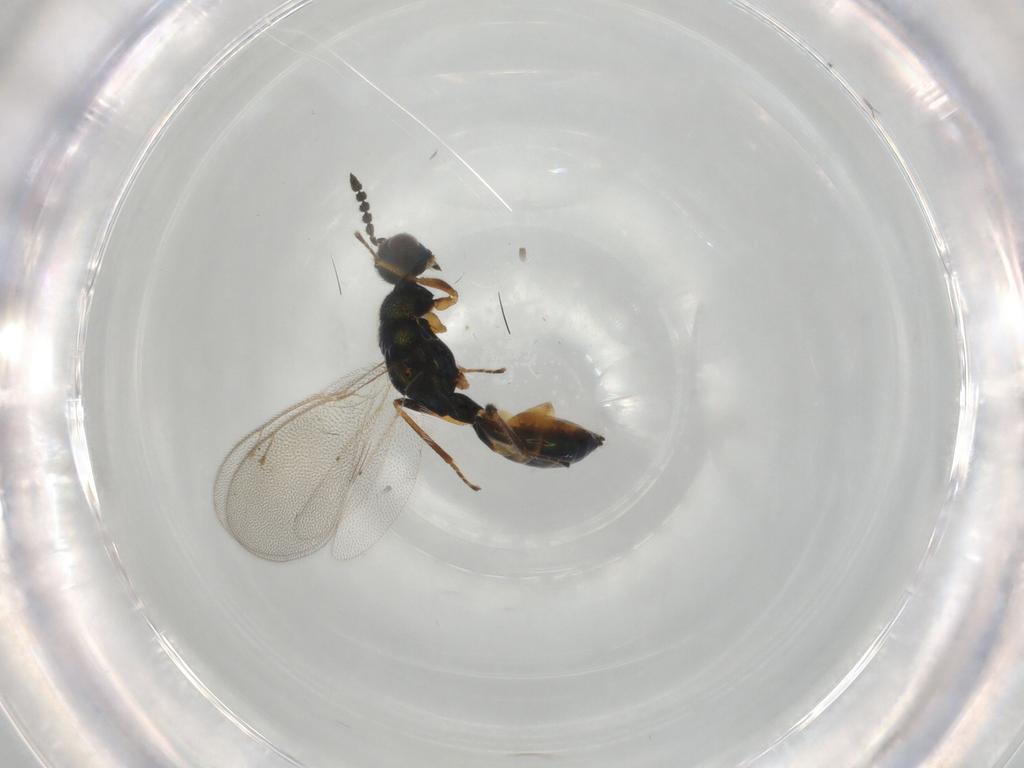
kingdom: Animalia
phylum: Arthropoda
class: Insecta
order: Hymenoptera
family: Eulophidae
